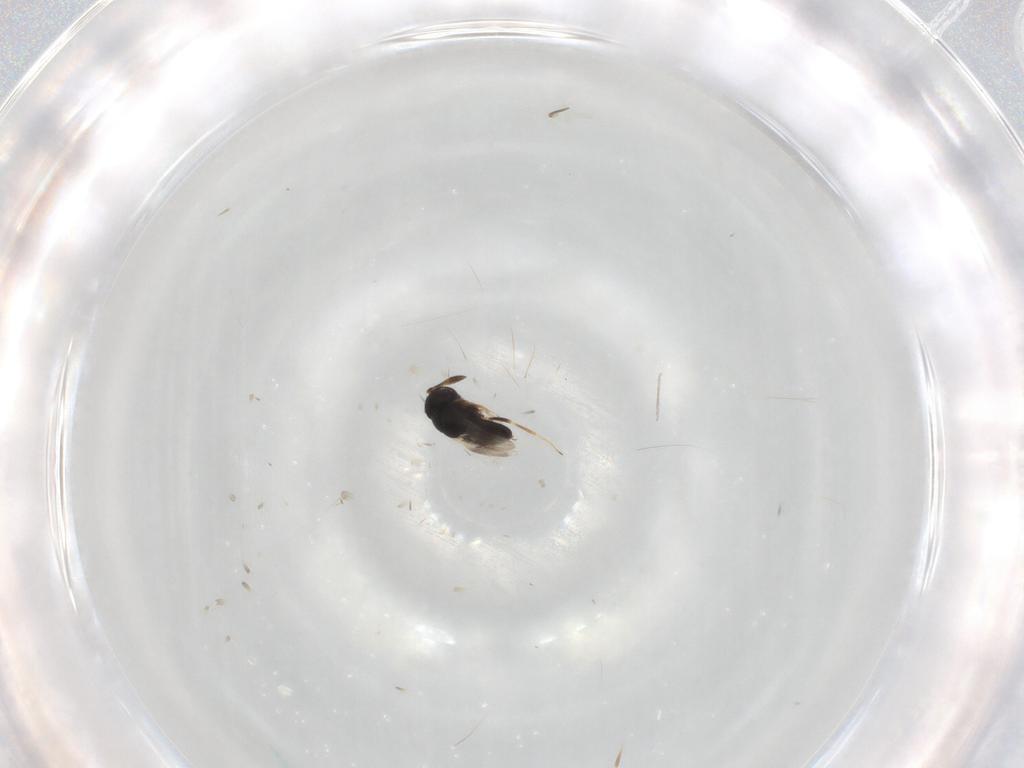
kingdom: Animalia
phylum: Arthropoda
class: Insecta
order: Hymenoptera
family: Scelionidae
